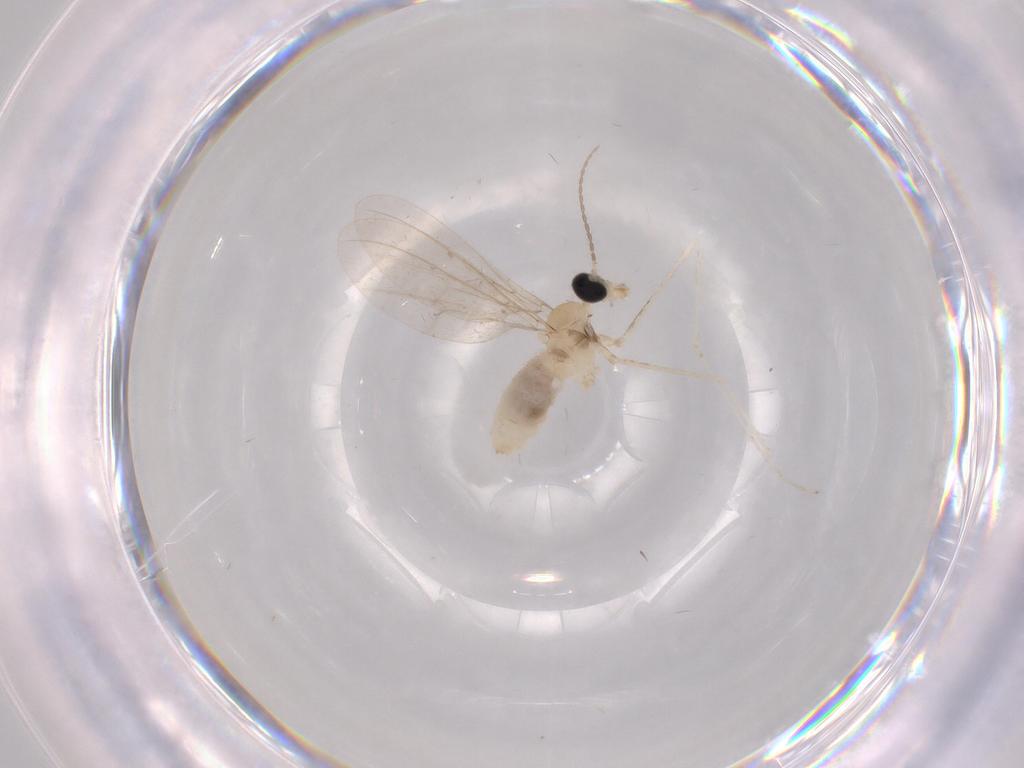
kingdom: Animalia
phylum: Arthropoda
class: Insecta
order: Diptera
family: Cecidomyiidae
